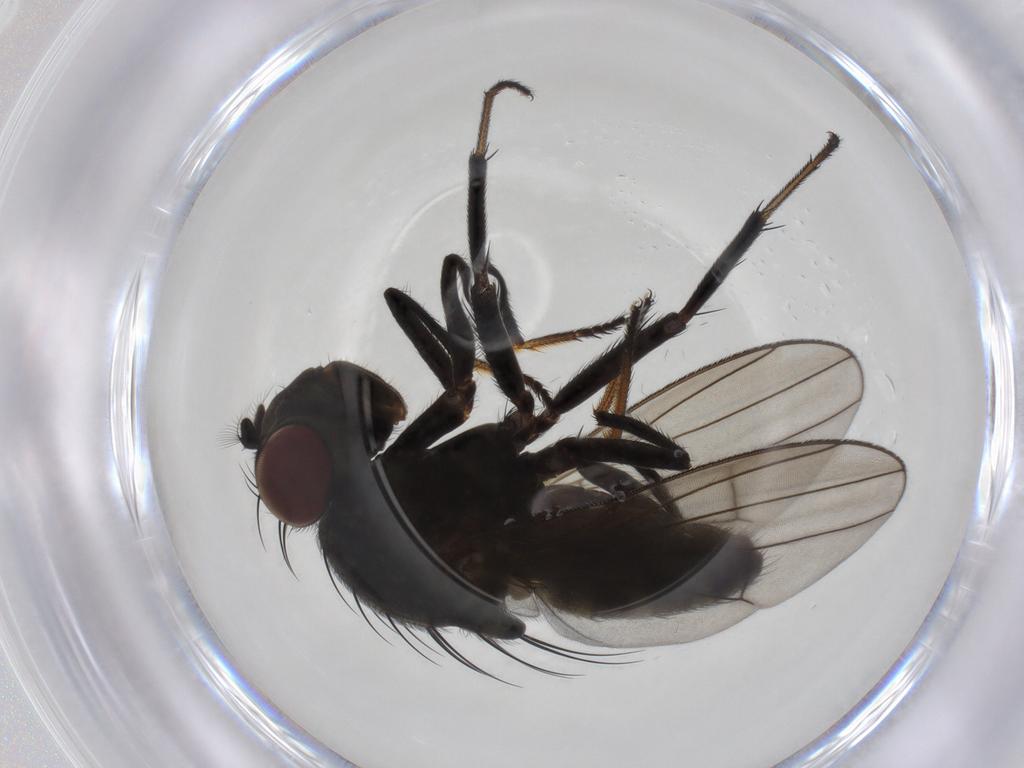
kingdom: Animalia
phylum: Arthropoda
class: Insecta
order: Diptera
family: Ephydridae
